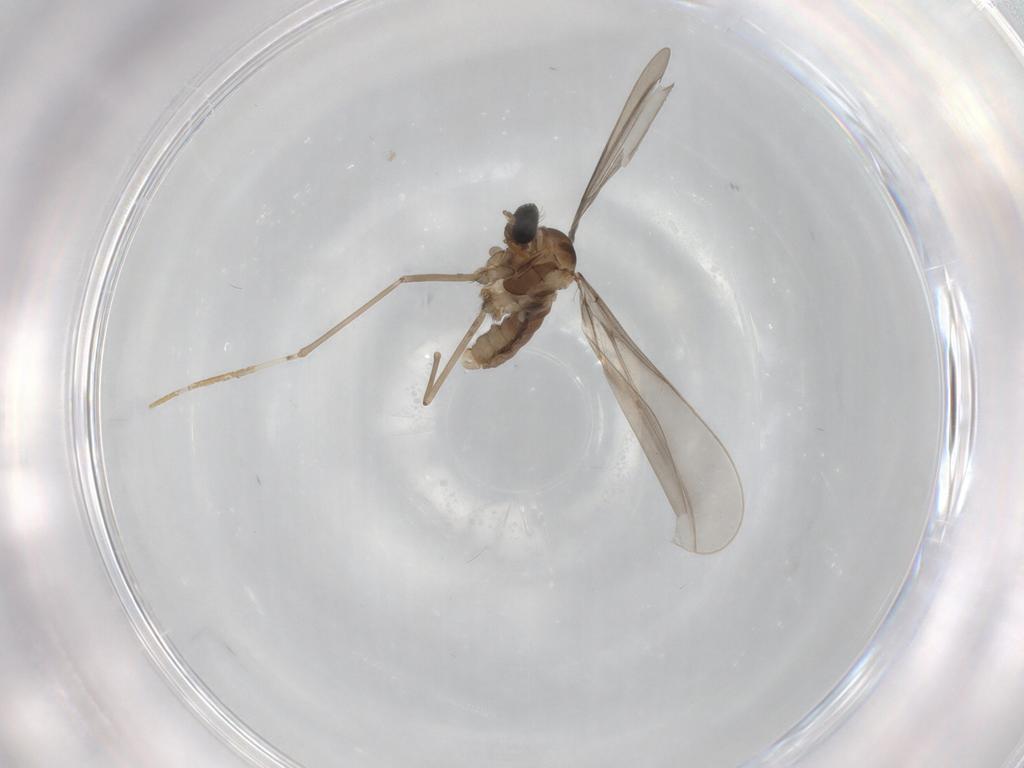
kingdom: Animalia
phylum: Arthropoda
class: Insecta
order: Diptera
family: Cecidomyiidae
